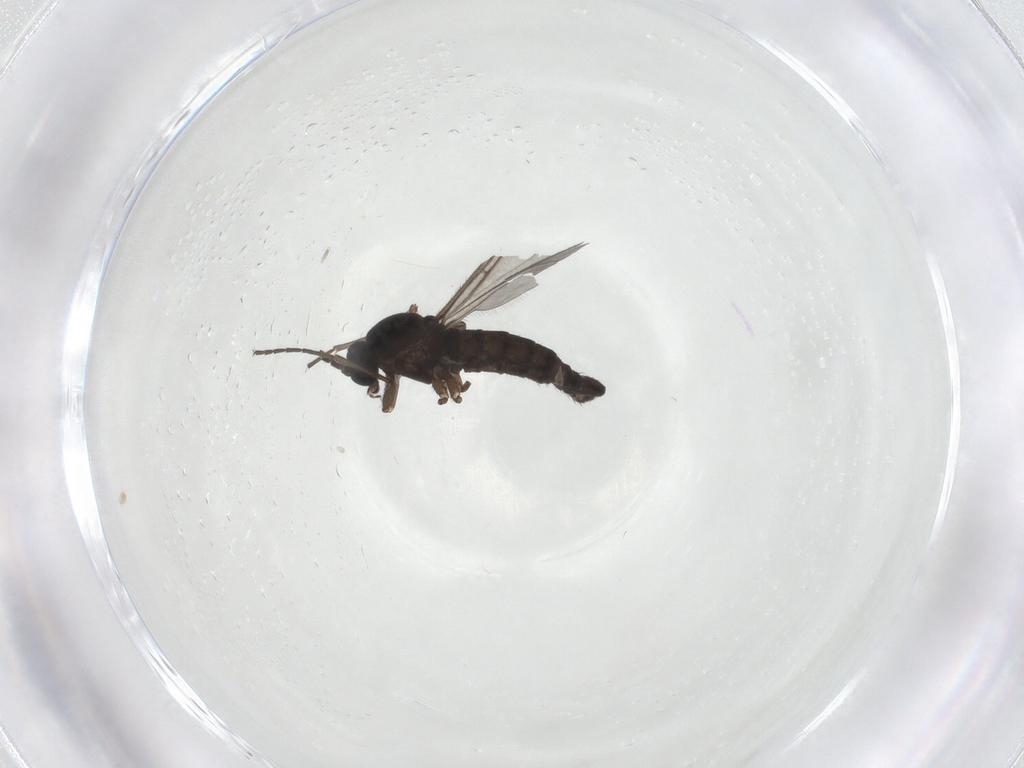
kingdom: Animalia
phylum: Arthropoda
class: Insecta
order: Diptera
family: Sciaridae
